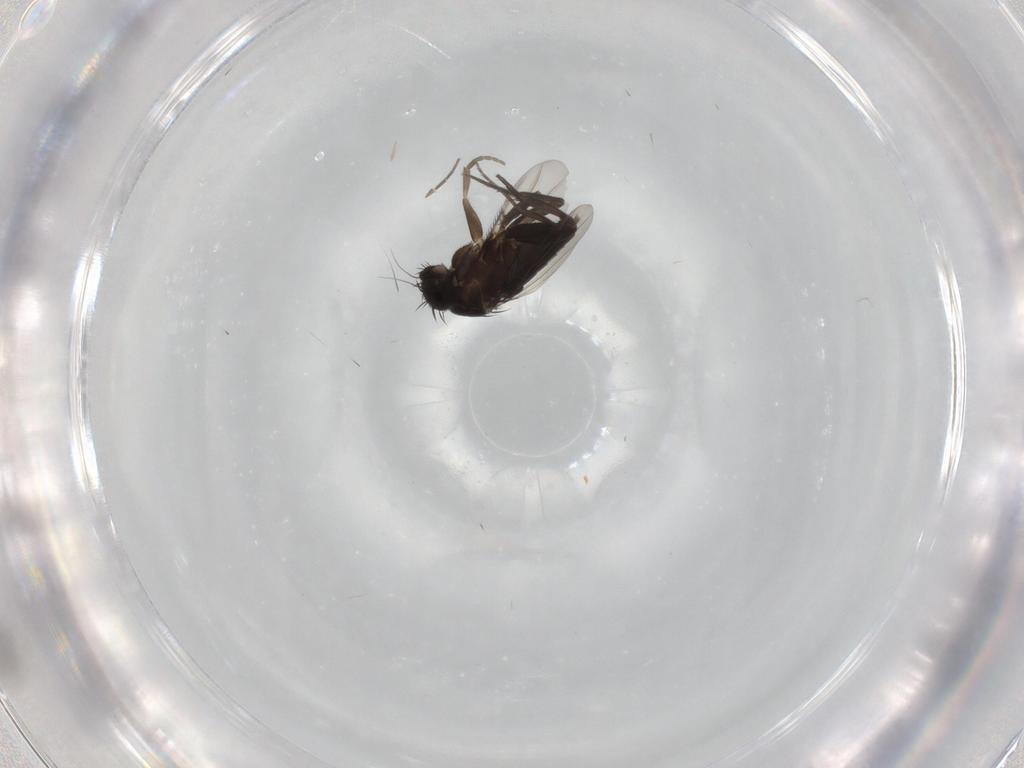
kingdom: Animalia
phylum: Arthropoda
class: Insecta
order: Diptera
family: Phoridae
